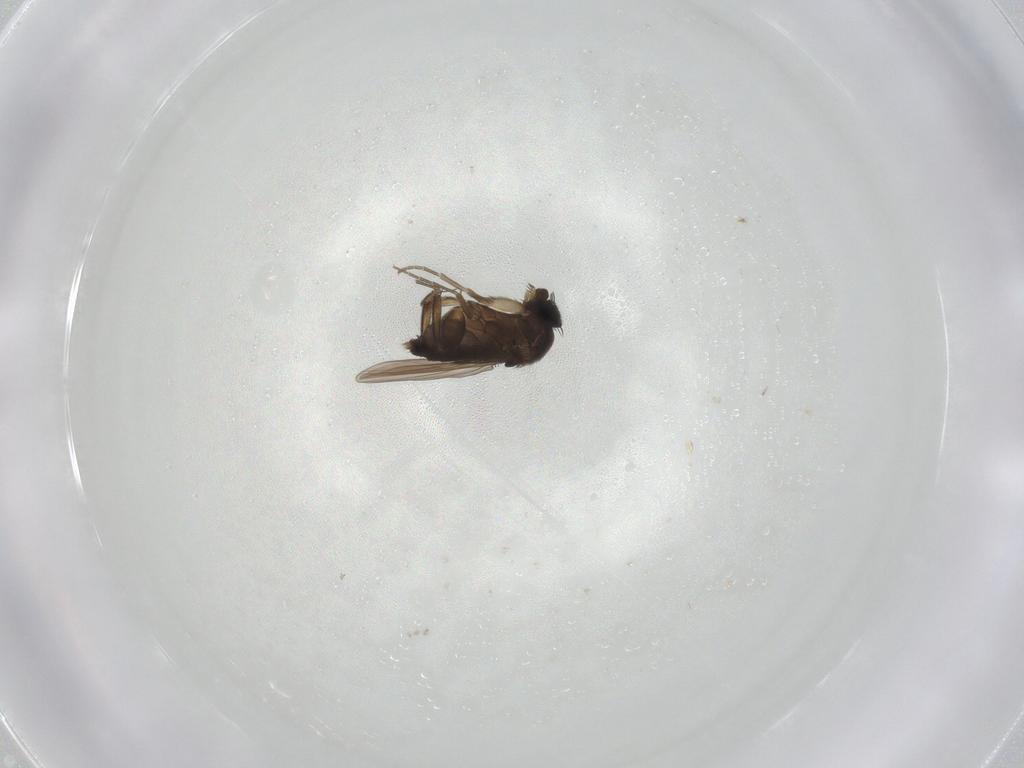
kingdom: Animalia
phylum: Arthropoda
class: Insecta
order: Diptera
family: Phoridae
